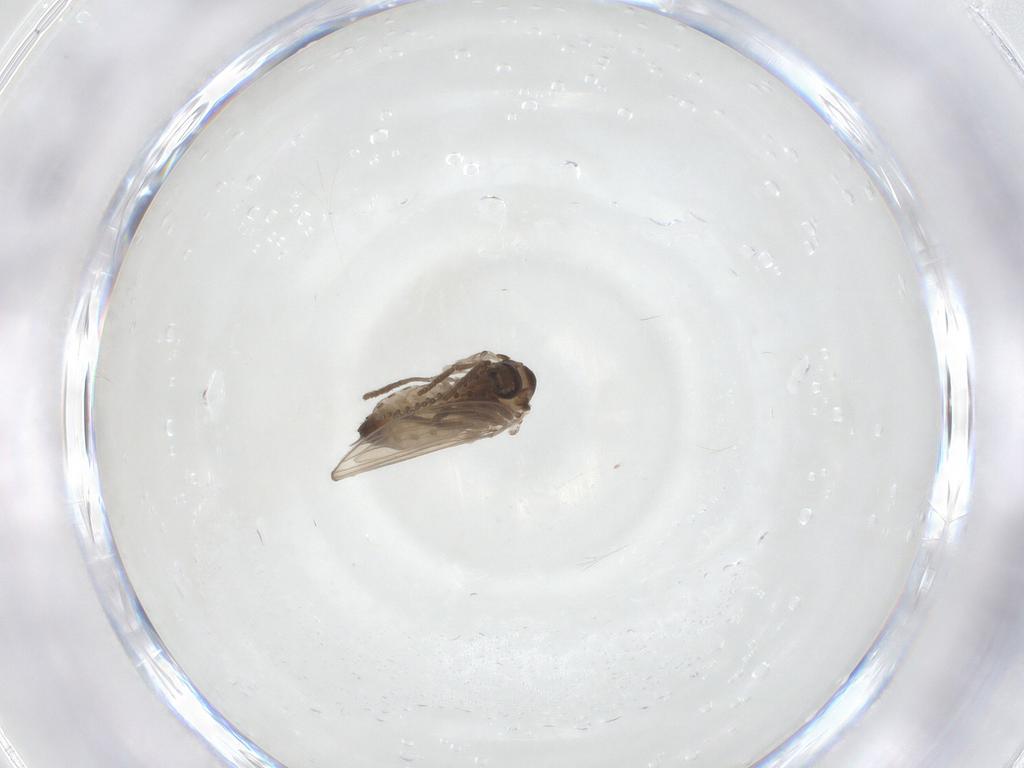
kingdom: Animalia
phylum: Arthropoda
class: Insecta
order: Diptera
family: Psychodidae
